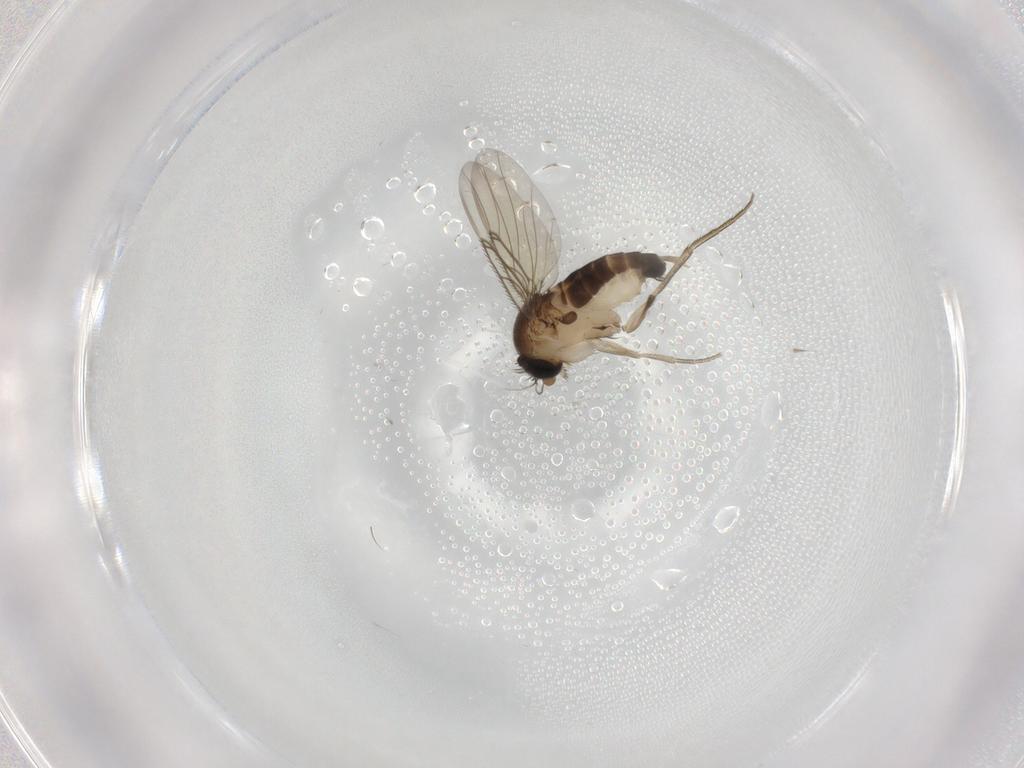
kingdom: Animalia
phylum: Arthropoda
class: Insecta
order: Diptera
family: Phoridae
